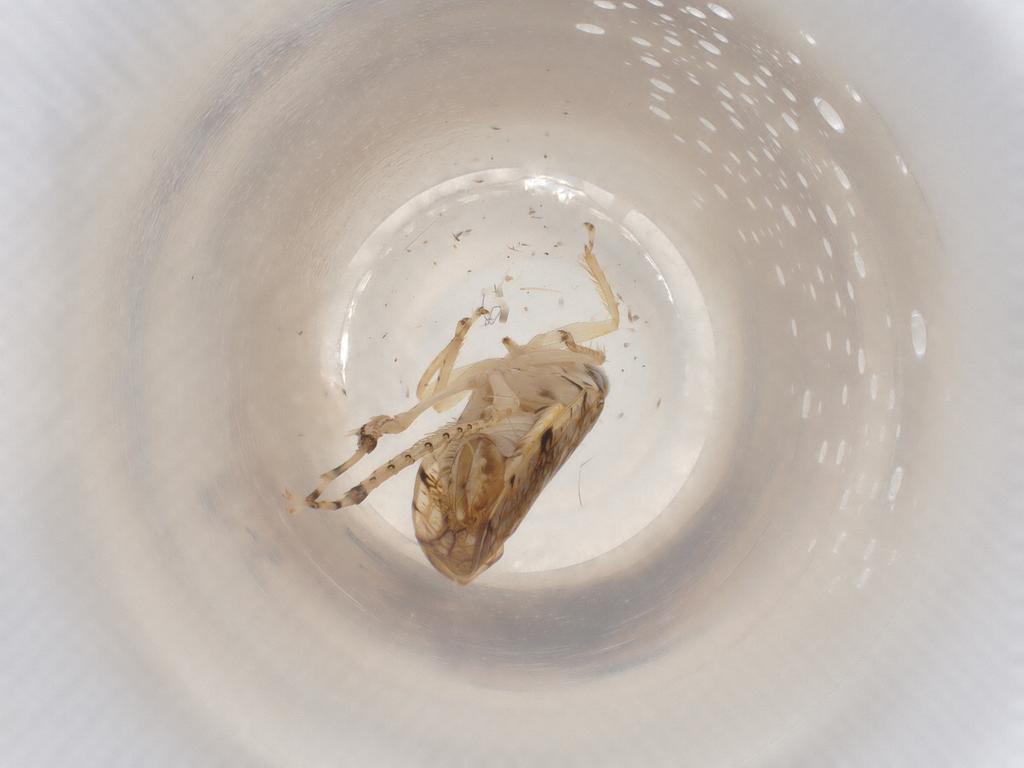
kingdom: Animalia
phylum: Arthropoda
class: Insecta
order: Hemiptera
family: Cicadellidae
